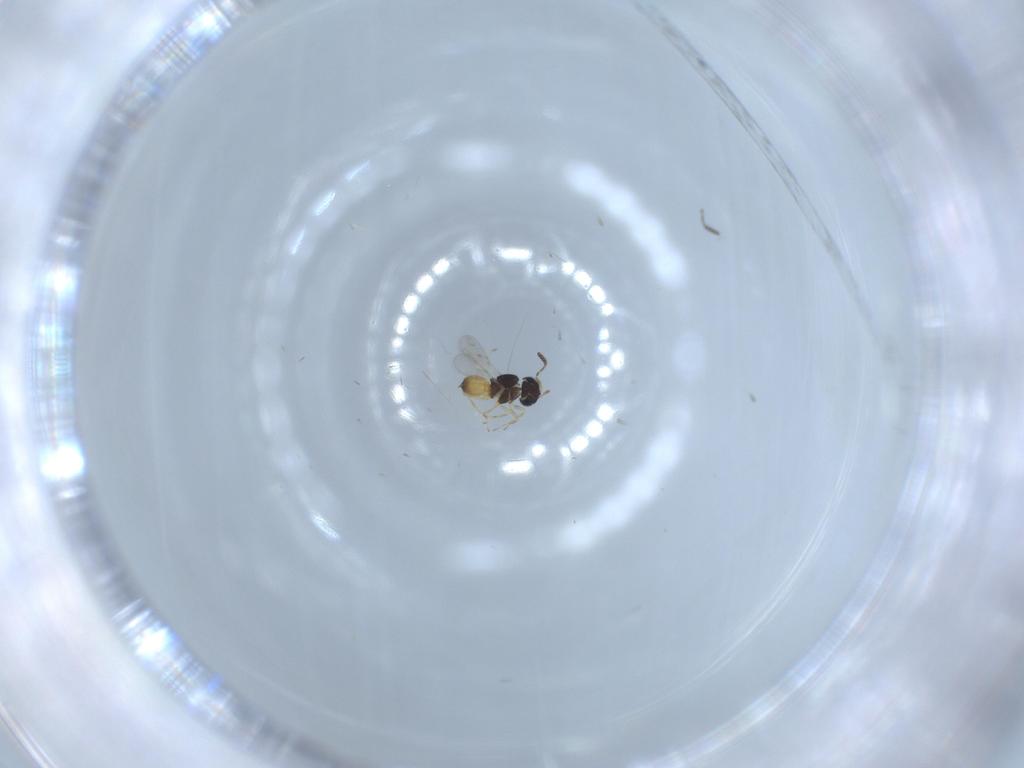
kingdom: Animalia
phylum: Arthropoda
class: Insecta
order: Hymenoptera
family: Scelionidae
